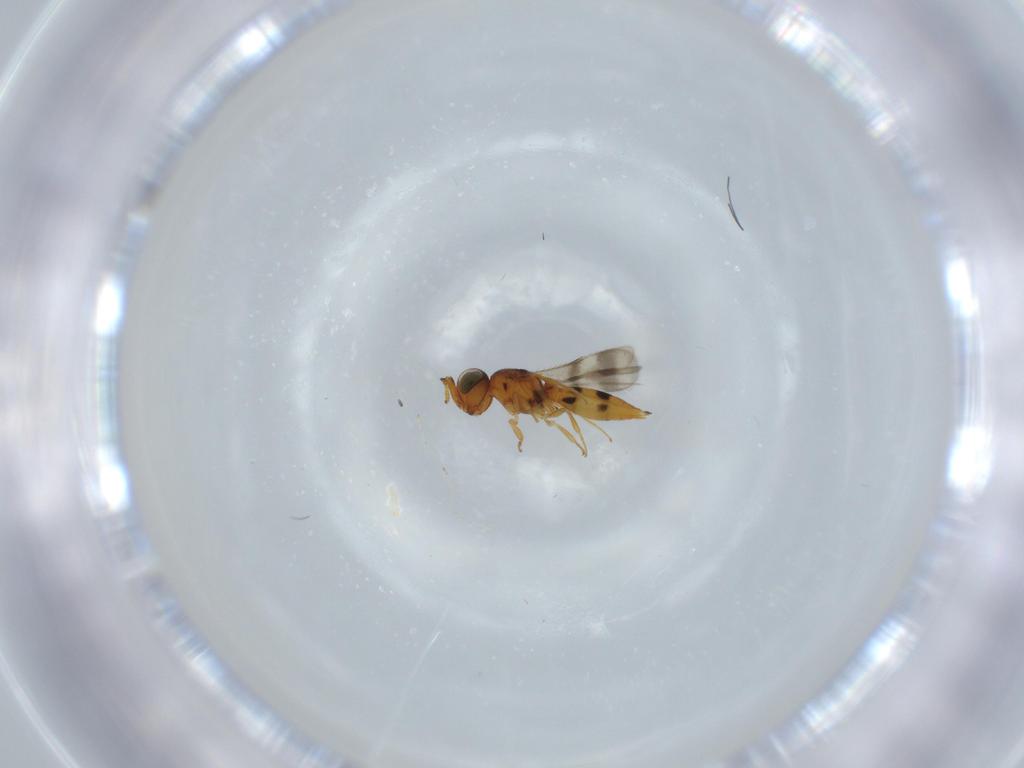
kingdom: Animalia
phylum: Arthropoda
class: Insecta
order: Hymenoptera
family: Scelionidae
